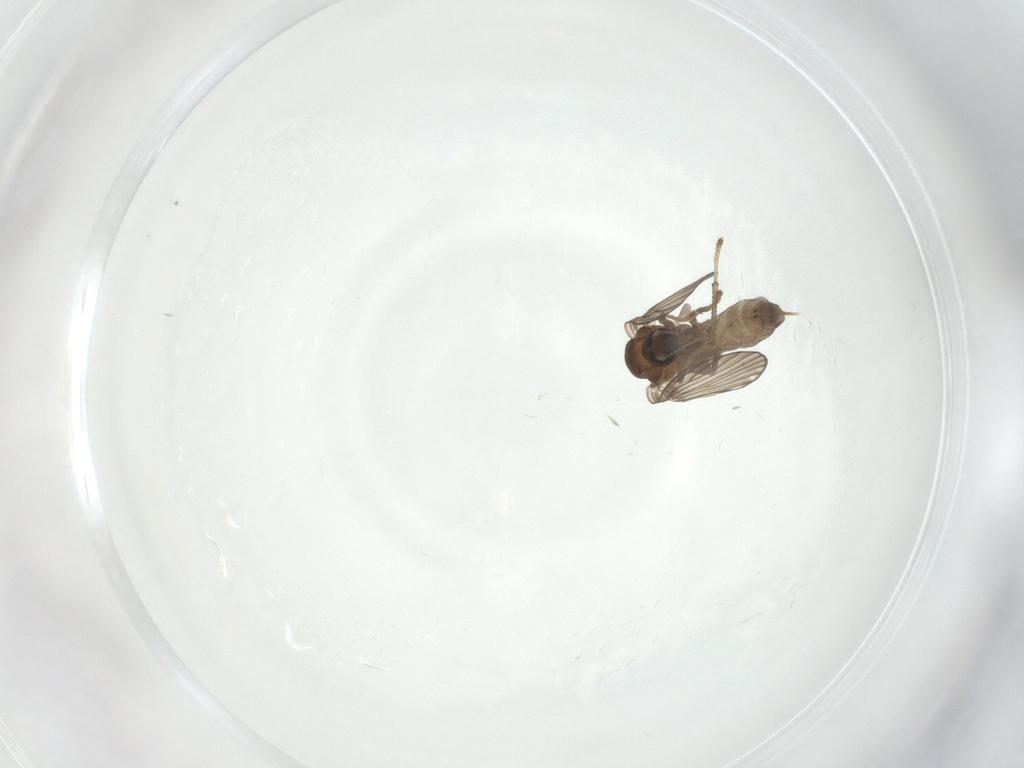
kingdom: Animalia
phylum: Arthropoda
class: Insecta
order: Diptera
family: Psychodidae
